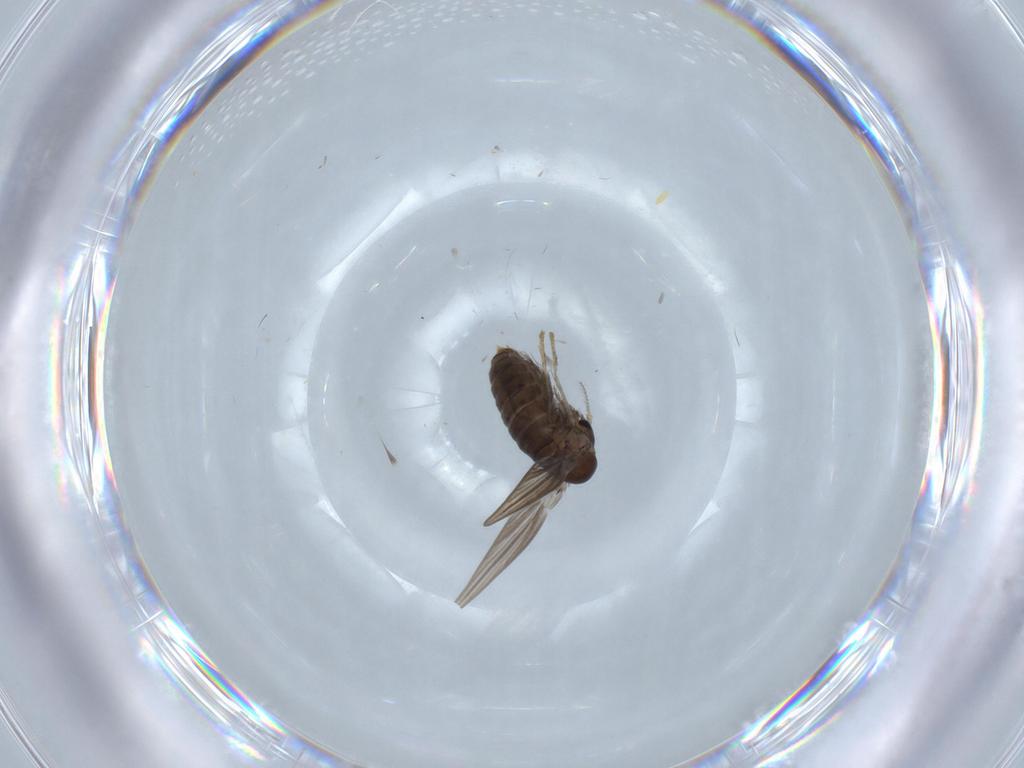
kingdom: Animalia
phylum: Arthropoda
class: Insecta
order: Diptera
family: Psychodidae
